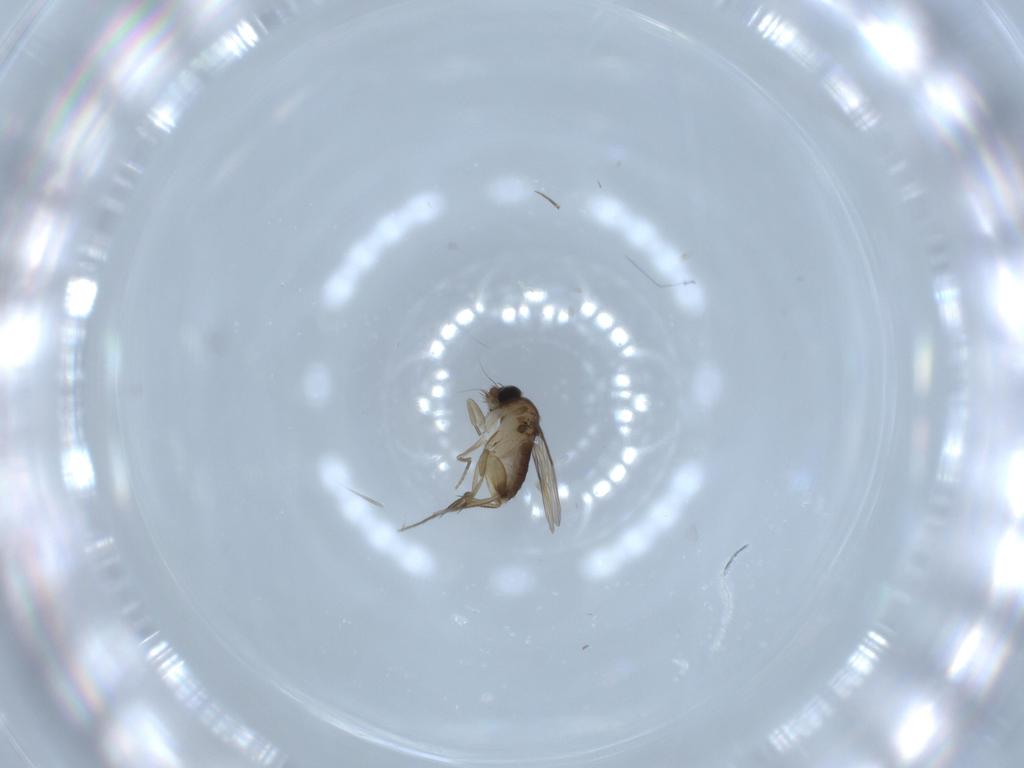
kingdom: Animalia
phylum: Arthropoda
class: Insecta
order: Diptera
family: Phoridae
